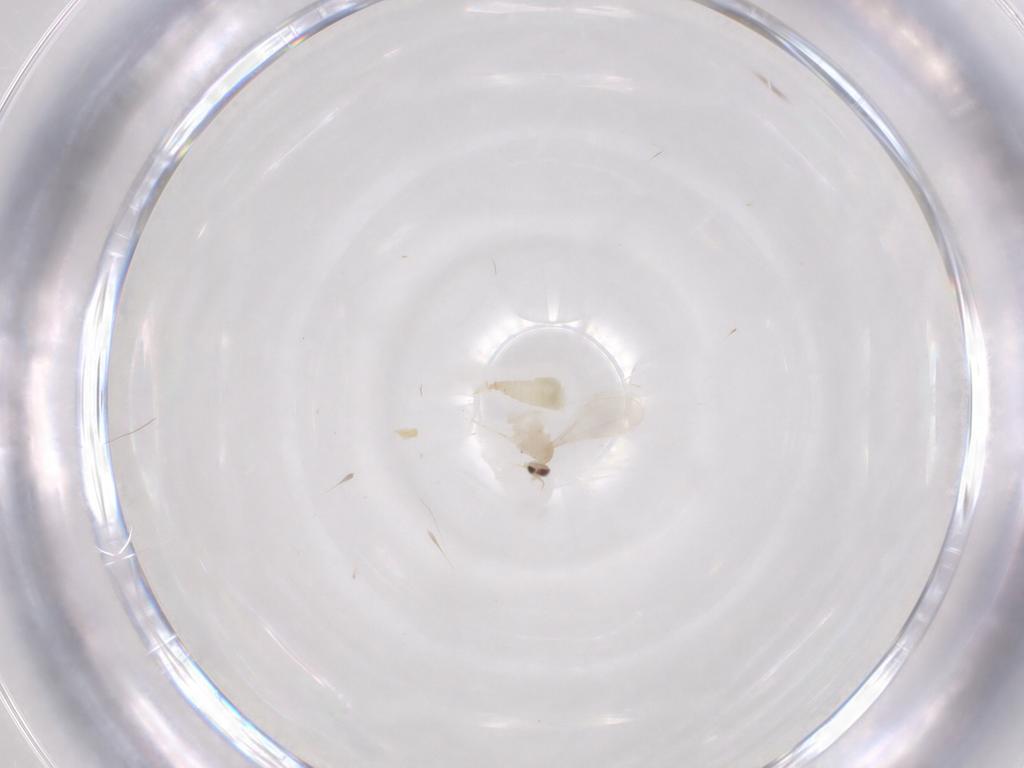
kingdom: Animalia
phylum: Arthropoda
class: Insecta
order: Diptera
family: Cecidomyiidae
